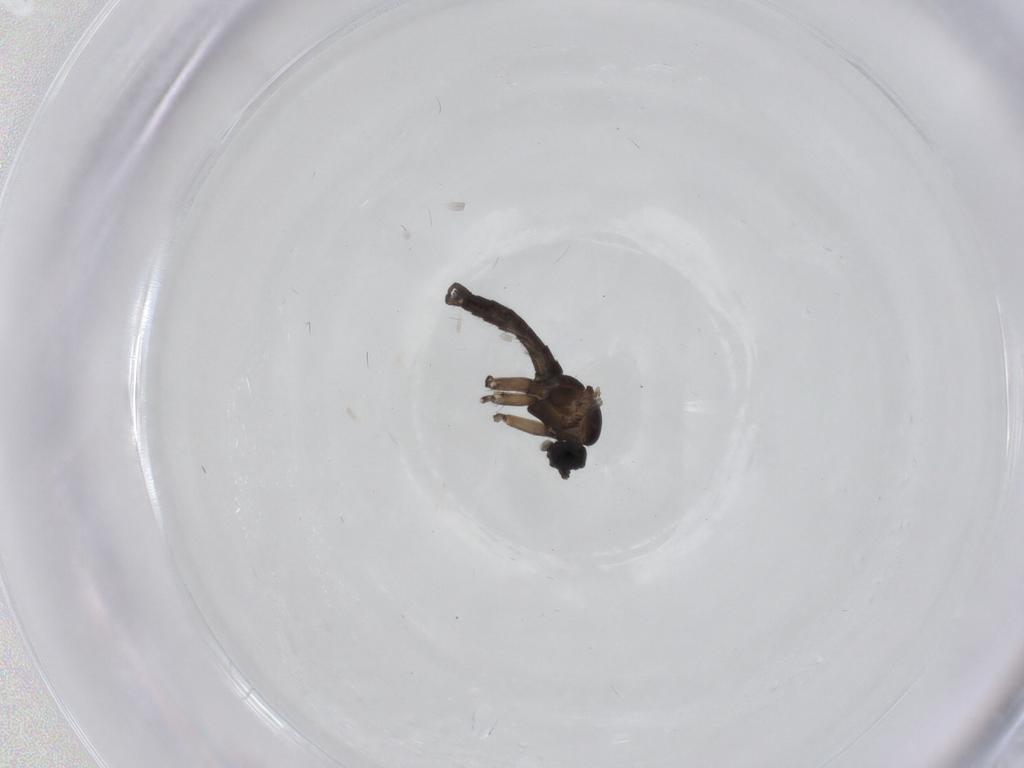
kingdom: Animalia
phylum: Arthropoda
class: Insecta
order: Diptera
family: Sciaridae
